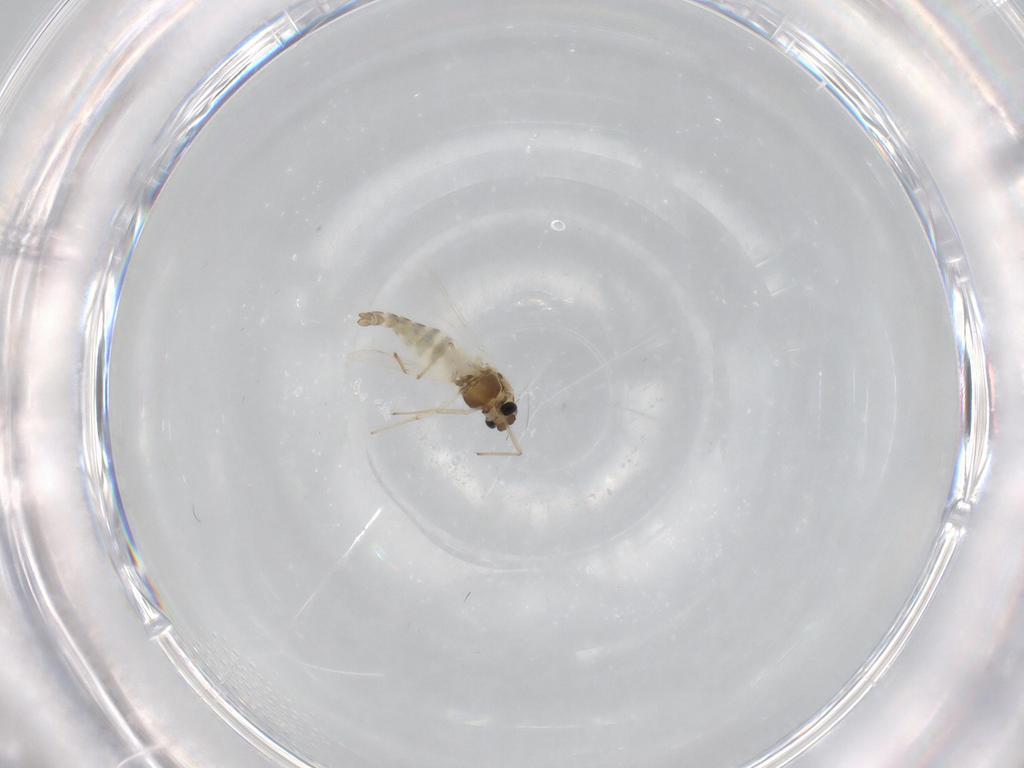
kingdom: Animalia
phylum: Arthropoda
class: Insecta
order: Diptera
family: Chironomidae
